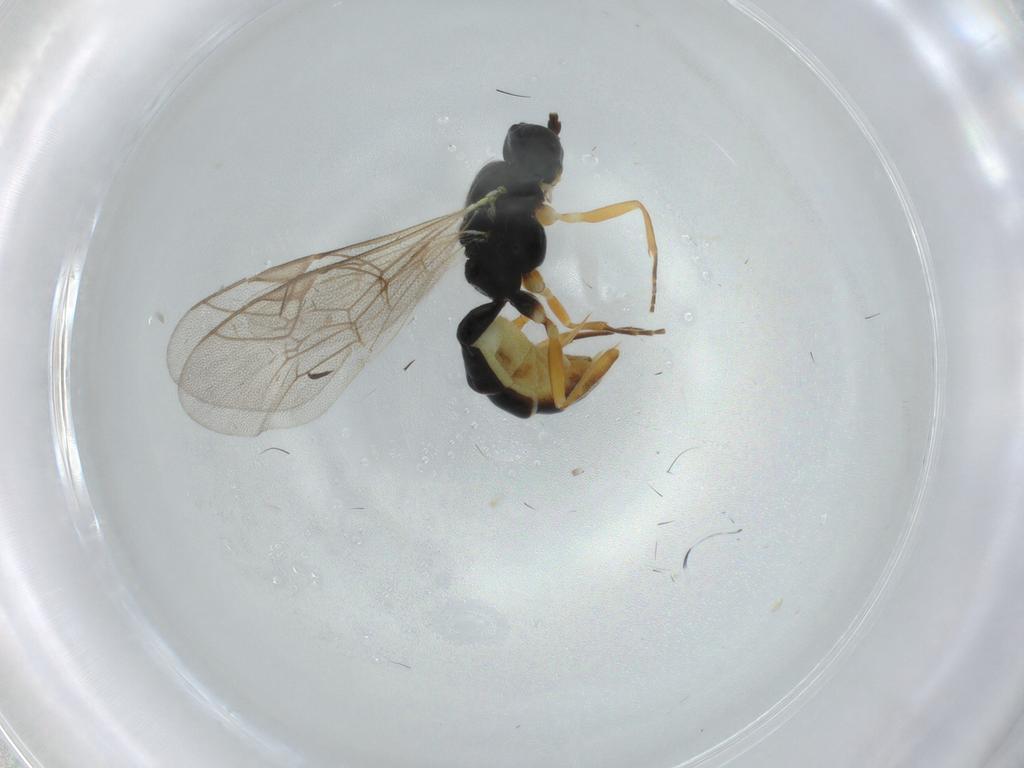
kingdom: Animalia
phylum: Arthropoda
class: Insecta
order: Hymenoptera
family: Ichneumonidae
